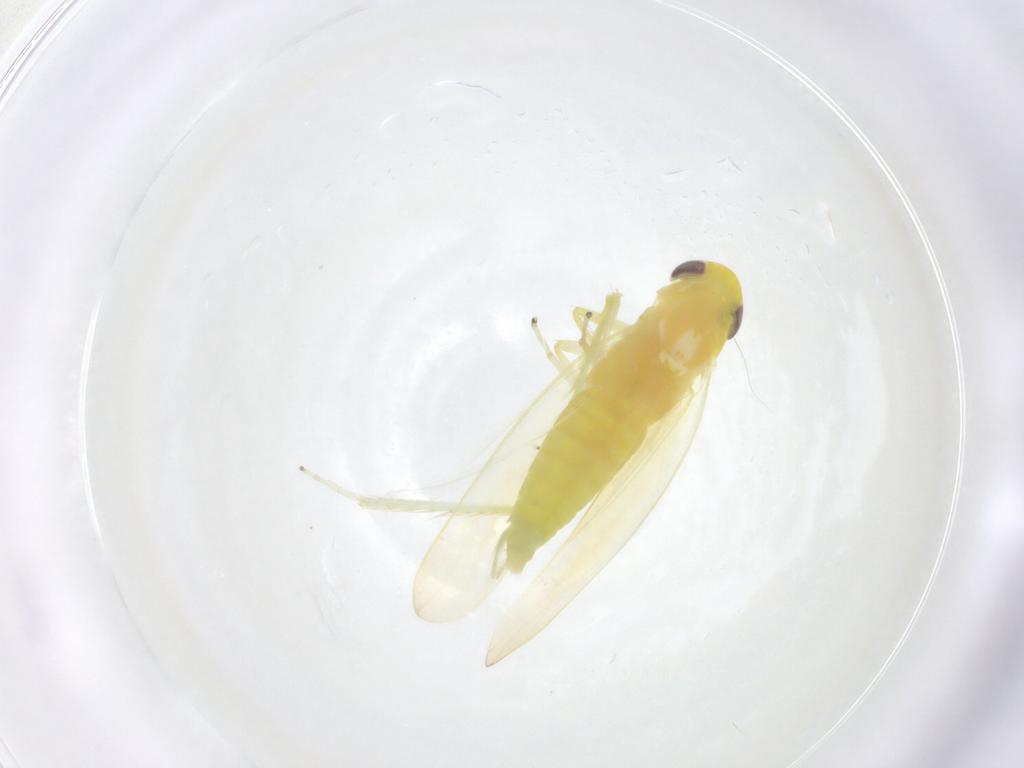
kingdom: Animalia
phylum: Arthropoda
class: Insecta
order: Hemiptera
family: Cicadellidae
